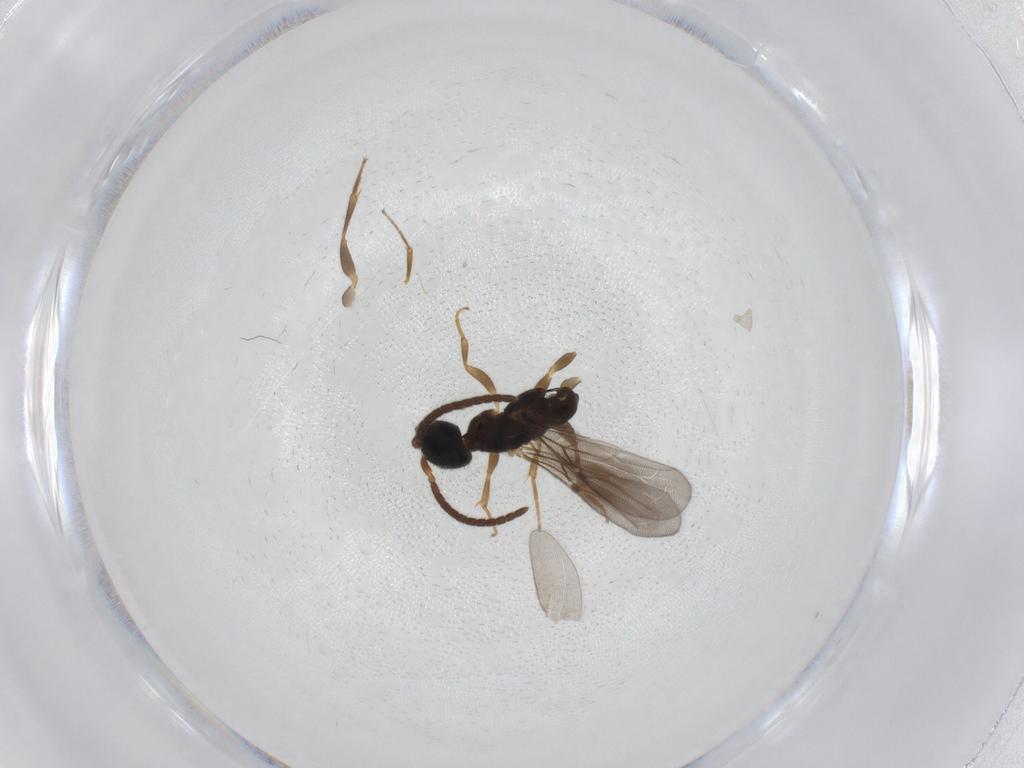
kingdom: Animalia
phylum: Arthropoda
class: Insecta
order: Hymenoptera
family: Bethylidae
